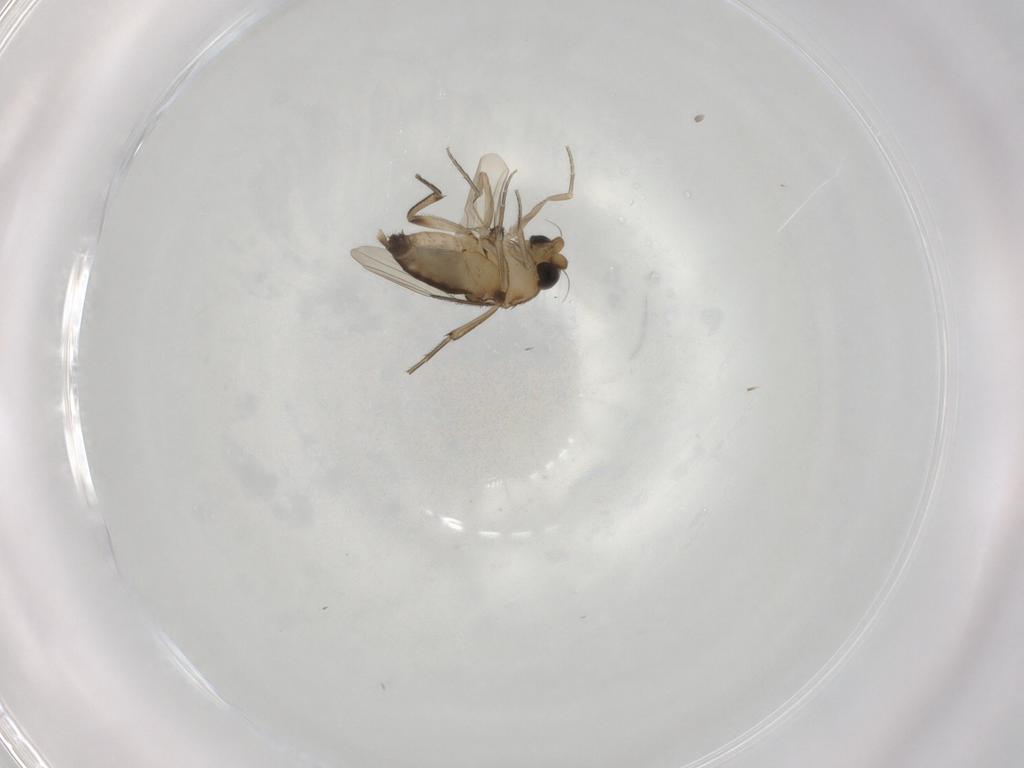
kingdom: Animalia
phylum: Arthropoda
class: Insecta
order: Diptera
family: Phoridae
